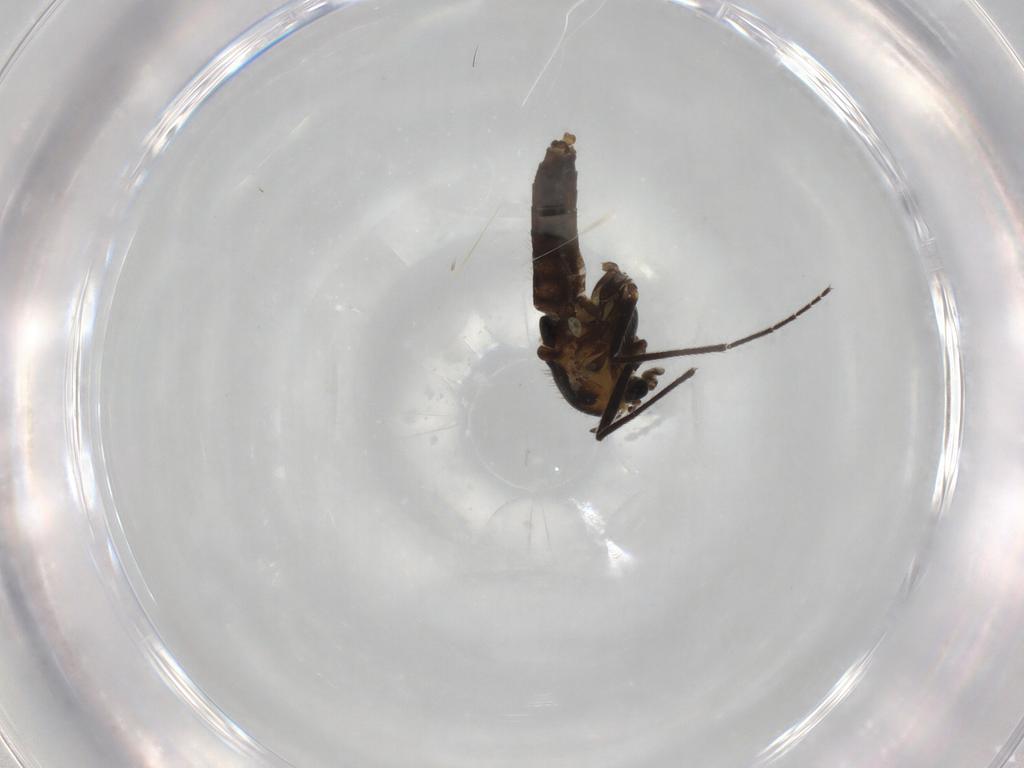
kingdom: Animalia
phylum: Arthropoda
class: Insecta
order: Diptera
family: Chironomidae
